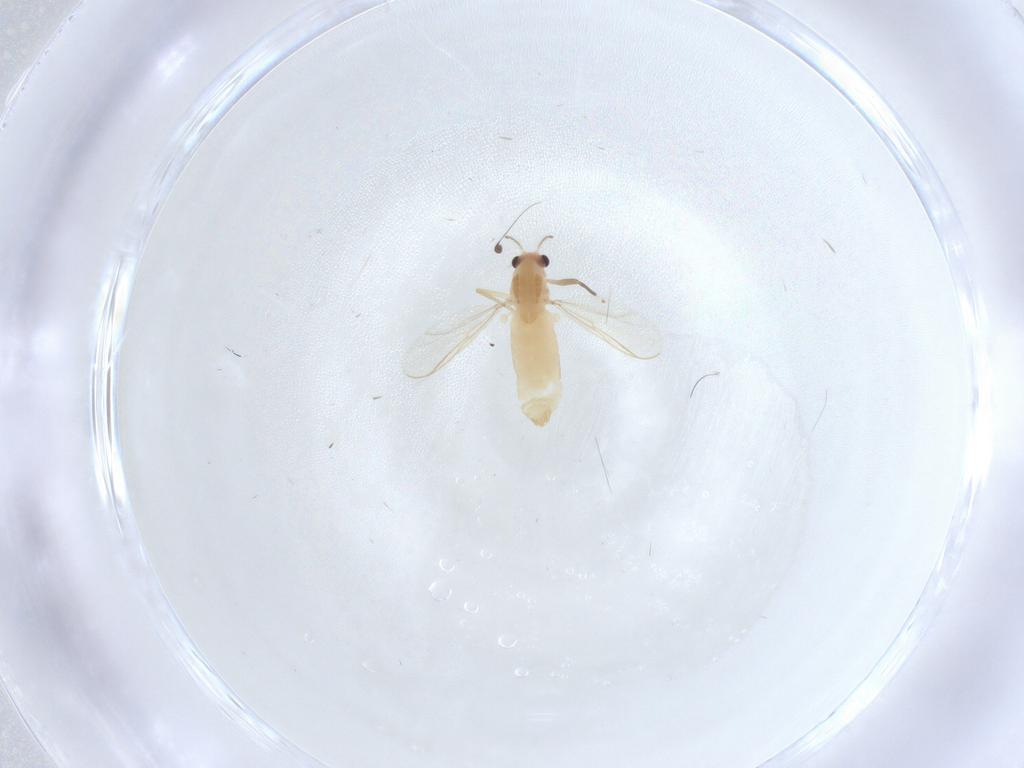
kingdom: Animalia
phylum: Arthropoda
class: Insecta
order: Diptera
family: Chironomidae
